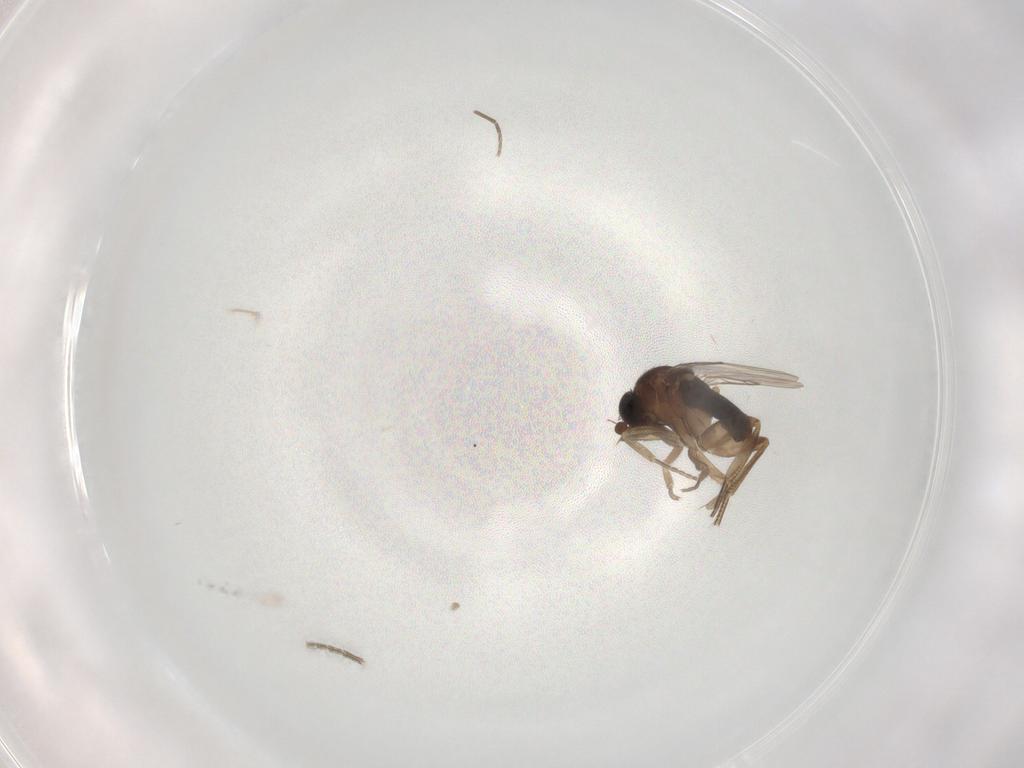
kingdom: Animalia
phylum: Arthropoda
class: Insecta
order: Diptera
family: Phoridae
